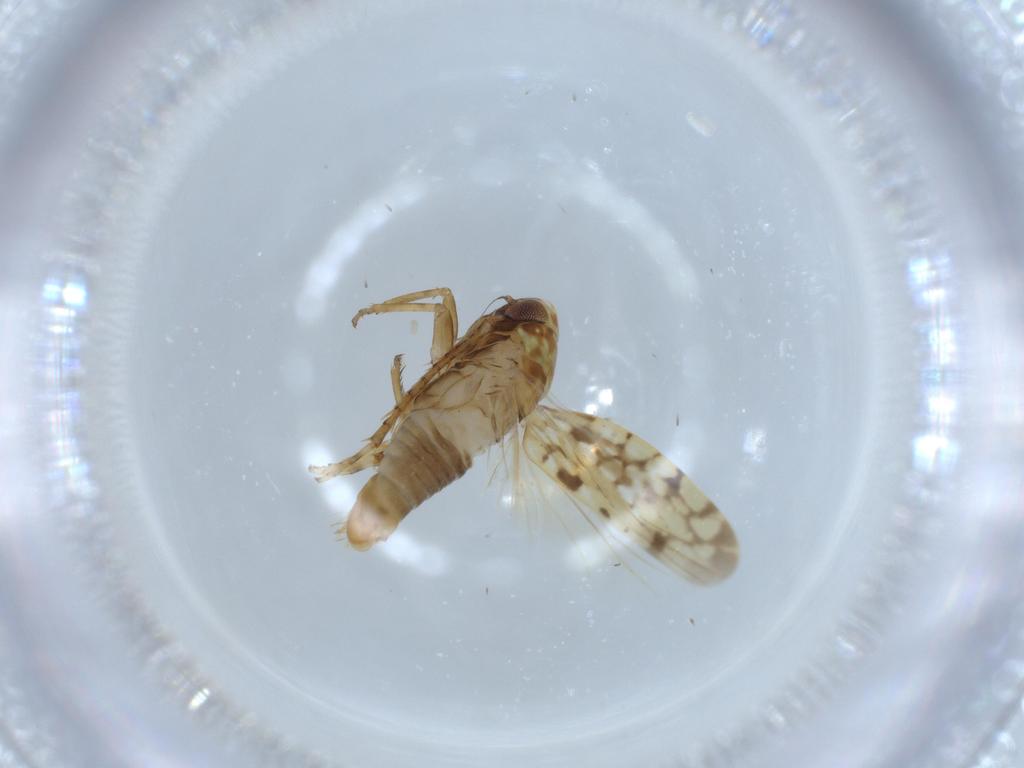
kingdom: Animalia
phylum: Arthropoda
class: Insecta
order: Hemiptera
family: Cicadellidae
